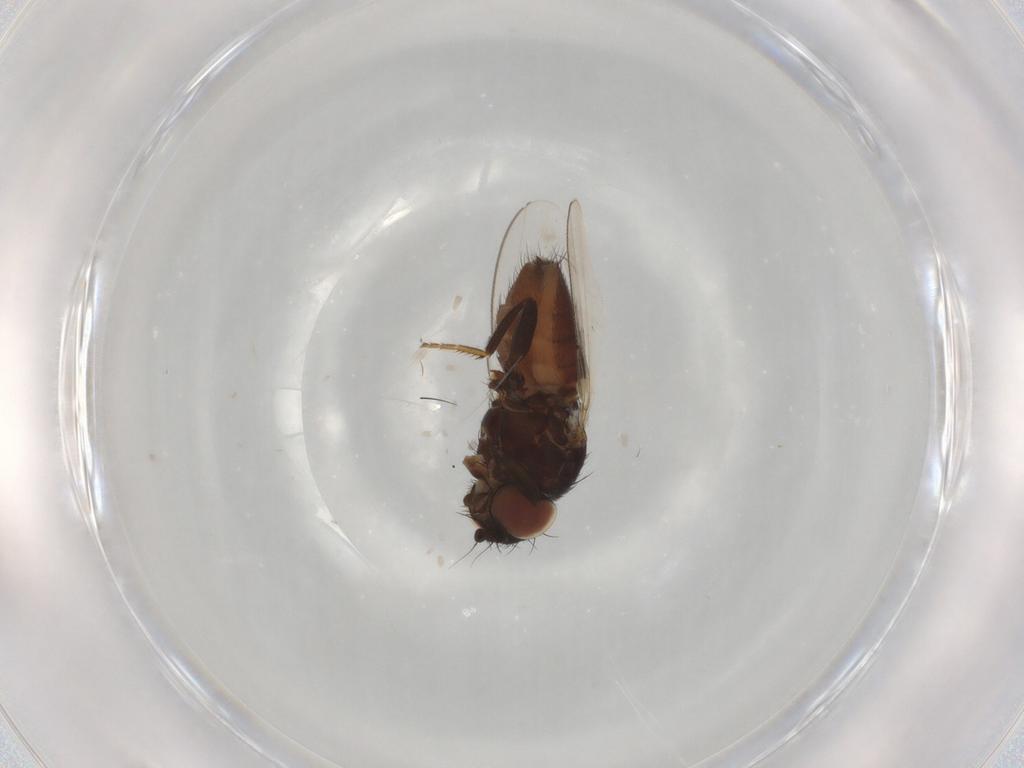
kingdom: Animalia
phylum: Arthropoda
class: Insecta
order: Diptera
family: Milichiidae
